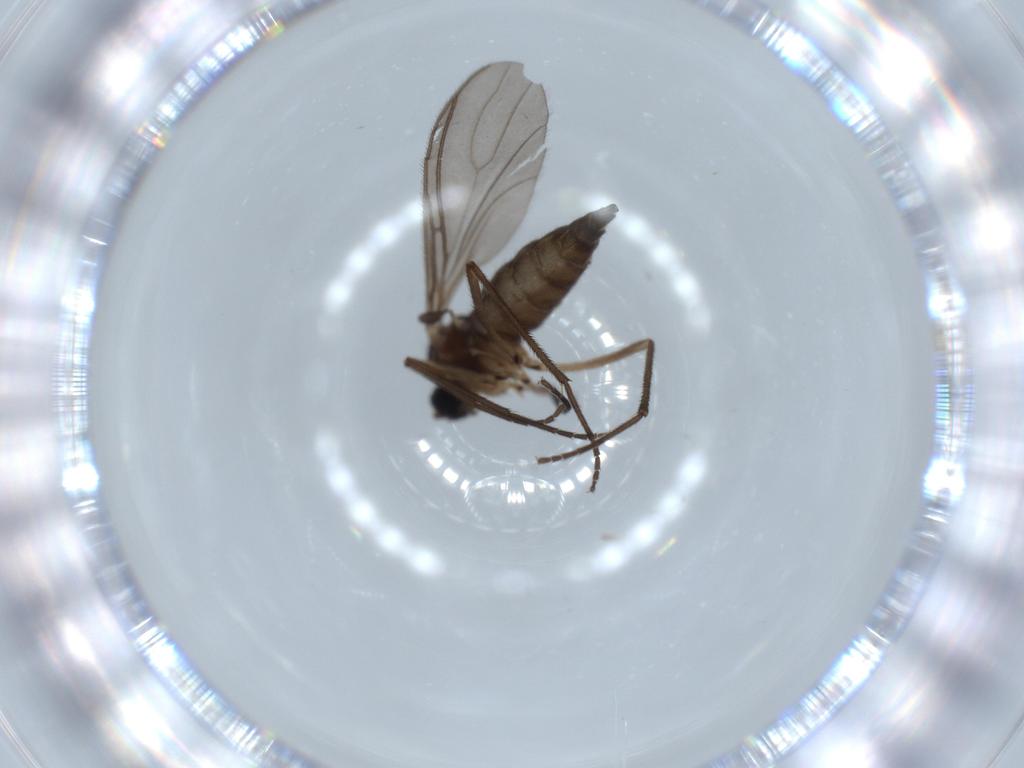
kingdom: Animalia
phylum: Arthropoda
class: Insecta
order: Diptera
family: Sciaridae
